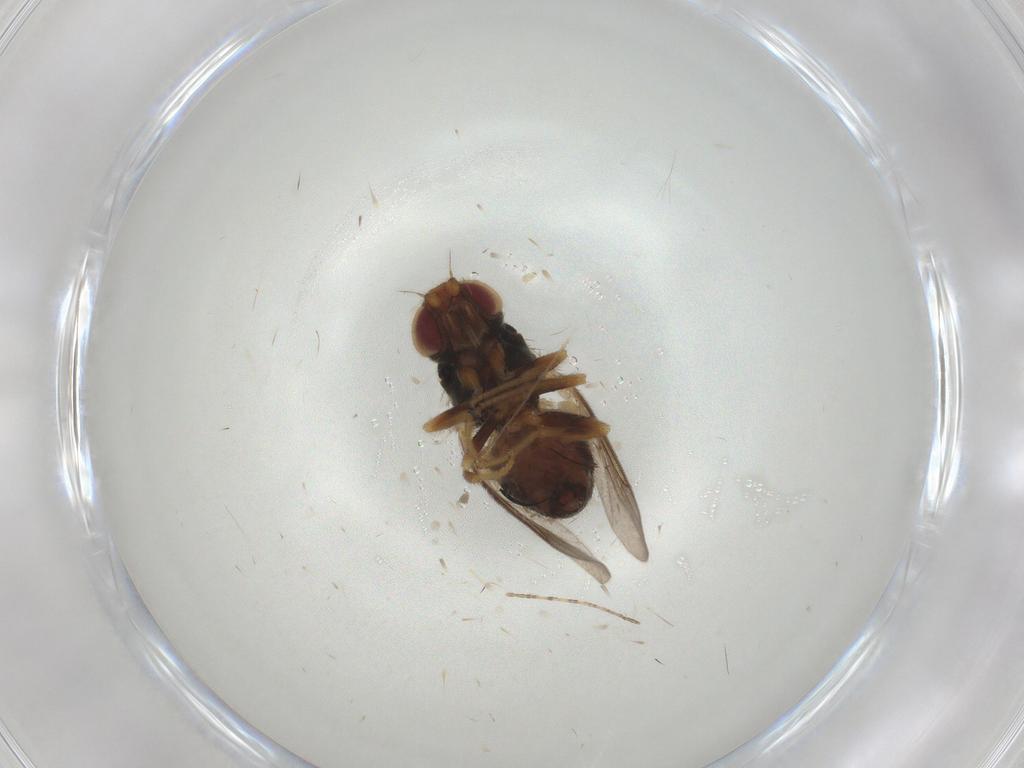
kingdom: Animalia
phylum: Arthropoda
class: Insecta
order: Diptera
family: Chloropidae
